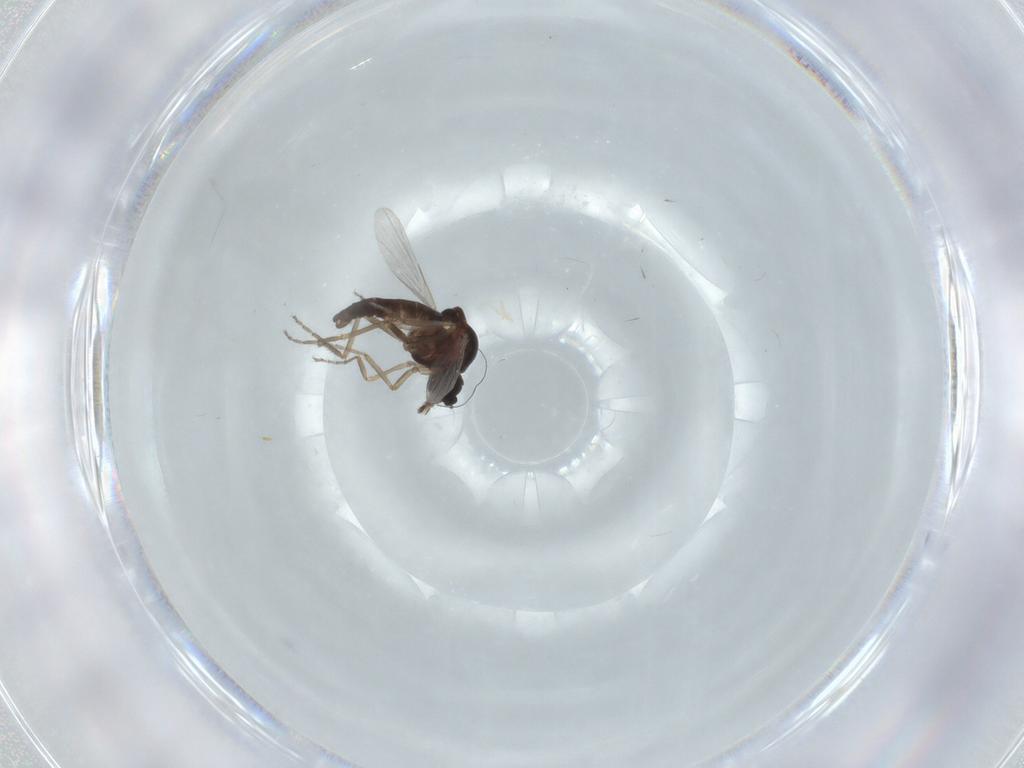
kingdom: Animalia
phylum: Arthropoda
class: Insecta
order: Diptera
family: Ceratopogonidae
